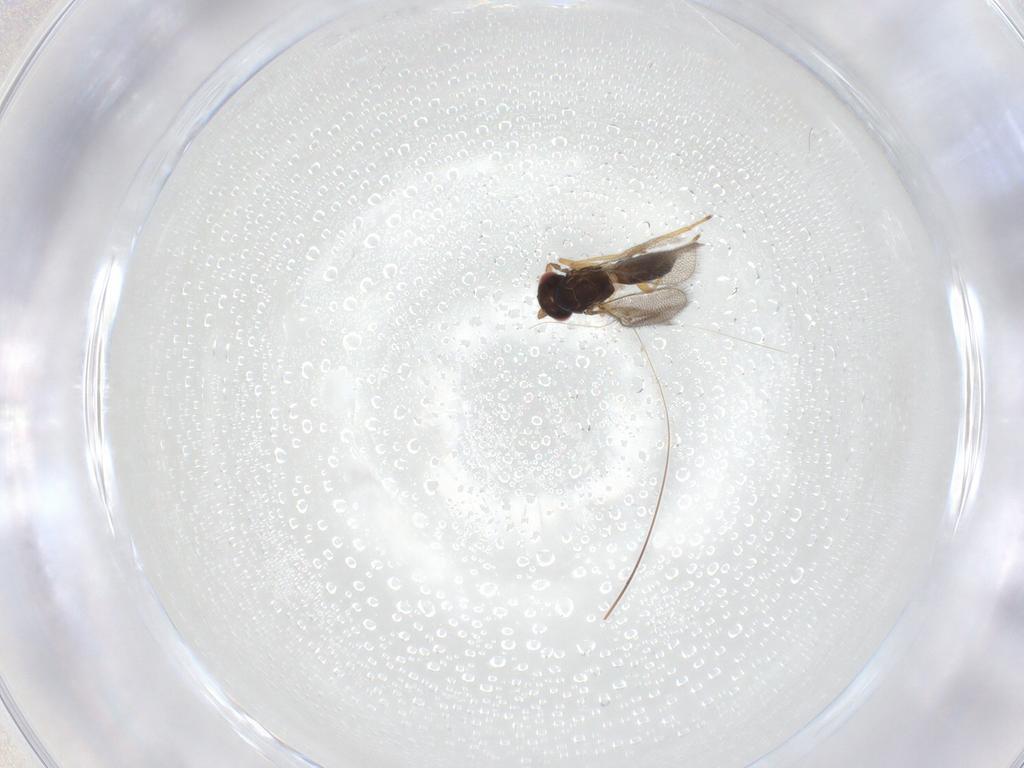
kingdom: Animalia
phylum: Arthropoda
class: Insecta
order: Hymenoptera
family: Eulophidae
